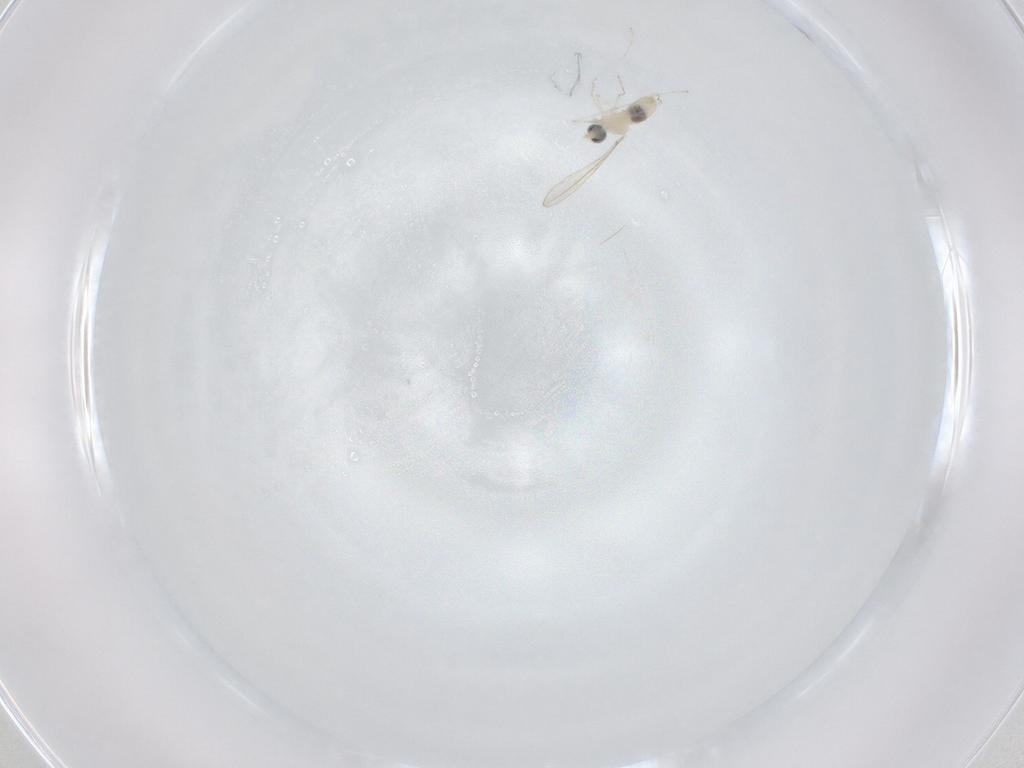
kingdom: Animalia
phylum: Arthropoda
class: Insecta
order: Diptera
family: Cecidomyiidae
